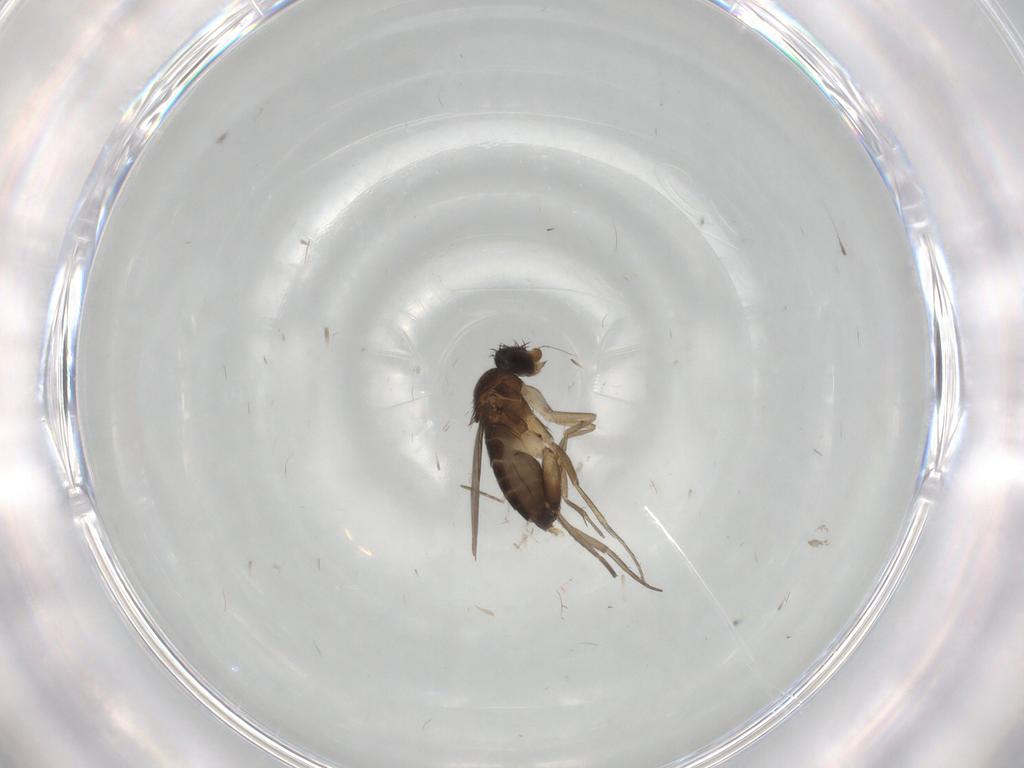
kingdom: Animalia
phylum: Arthropoda
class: Insecta
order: Diptera
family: Phoridae
